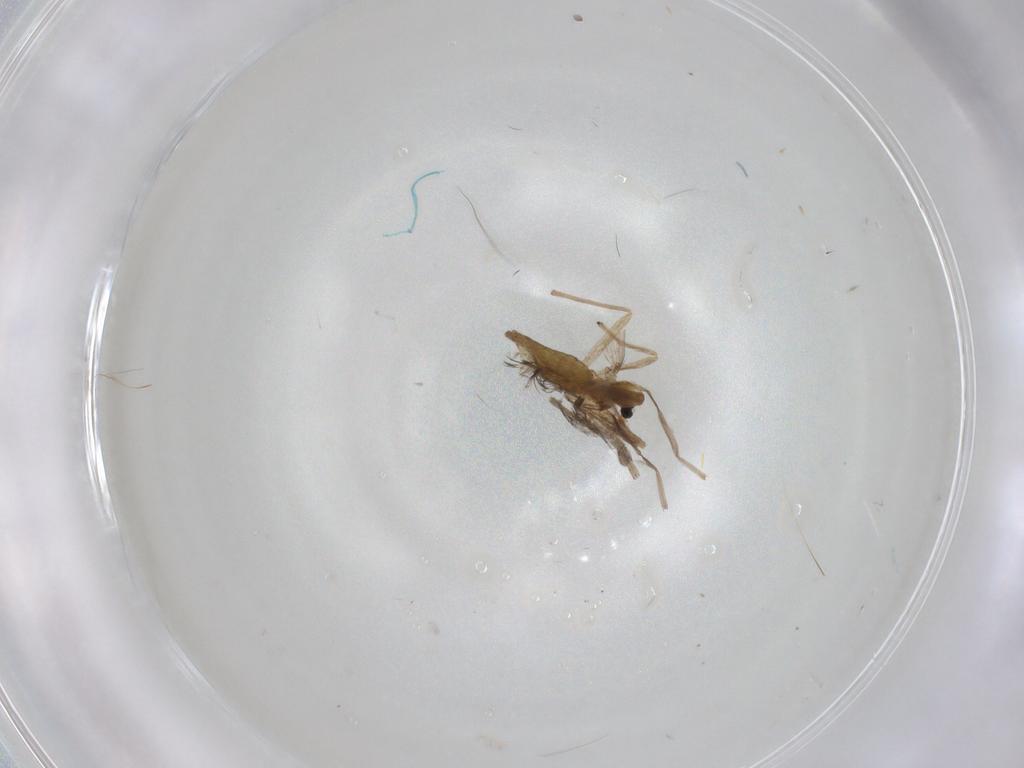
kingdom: Animalia
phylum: Arthropoda
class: Insecta
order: Diptera
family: Chironomidae
